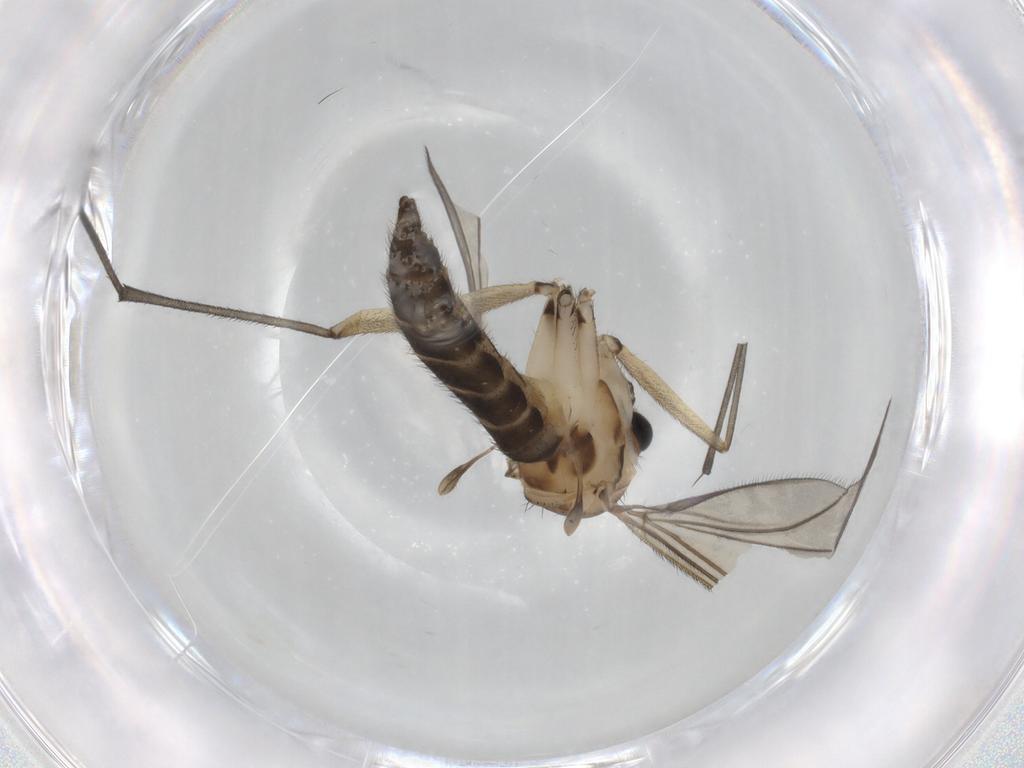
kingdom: Animalia
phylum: Arthropoda
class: Insecta
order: Diptera
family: Sciaridae
